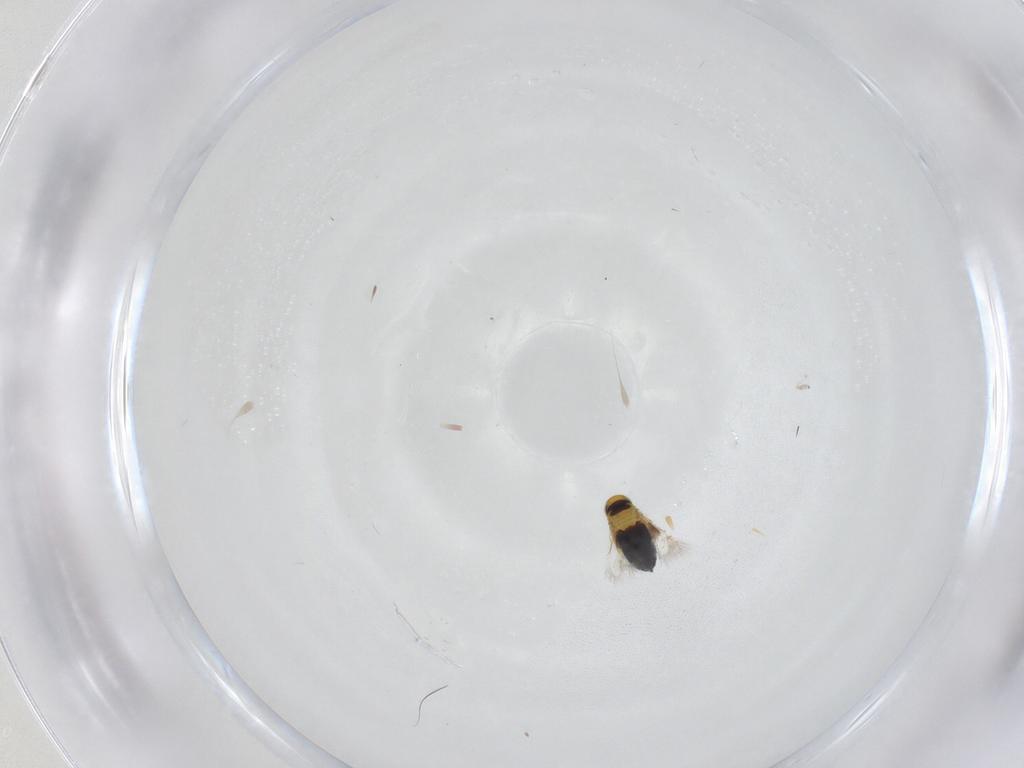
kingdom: Animalia
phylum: Arthropoda
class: Insecta
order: Hymenoptera
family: Signiphoridae
